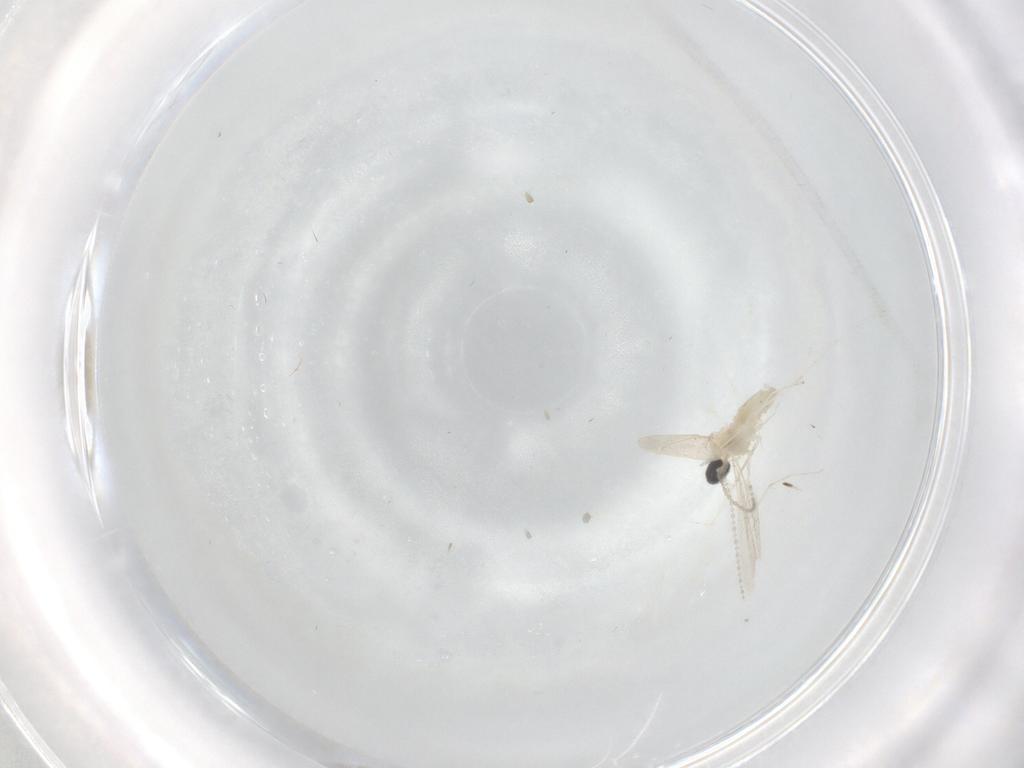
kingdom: Animalia
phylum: Arthropoda
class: Insecta
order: Diptera
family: Cecidomyiidae
